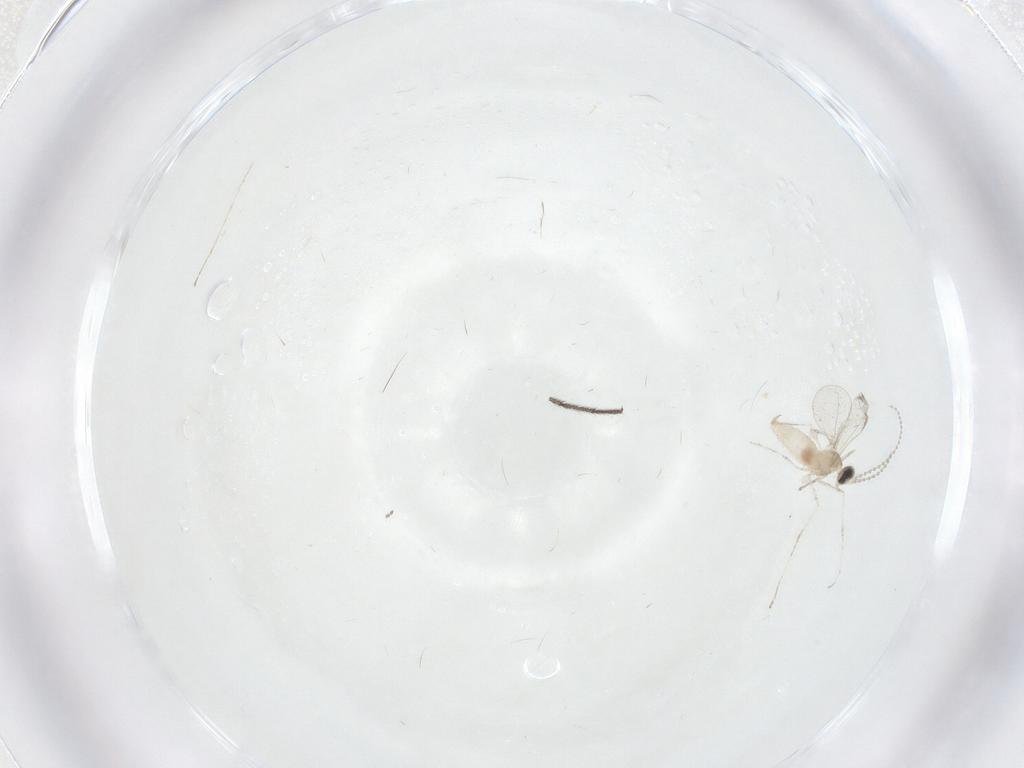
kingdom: Animalia
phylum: Arthropoda
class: Insecta
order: Diptera
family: Cecidomyiidae
